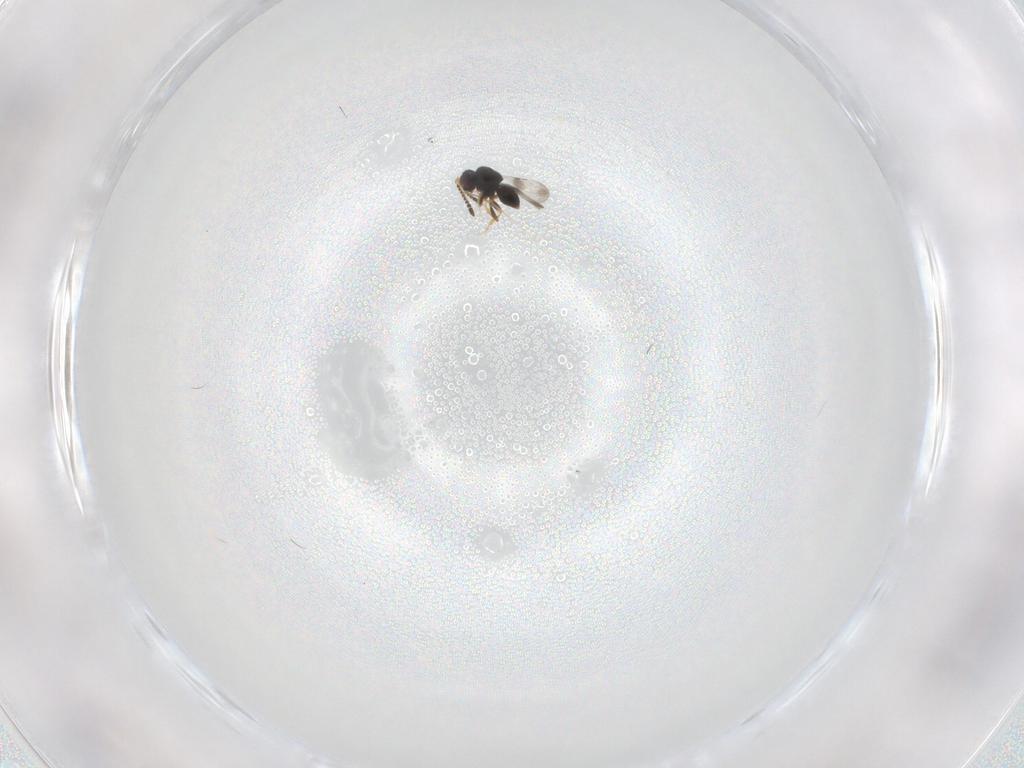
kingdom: Animalia
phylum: Arthropoda
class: Insecta
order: Hymenoptera
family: Ceraphronidae
